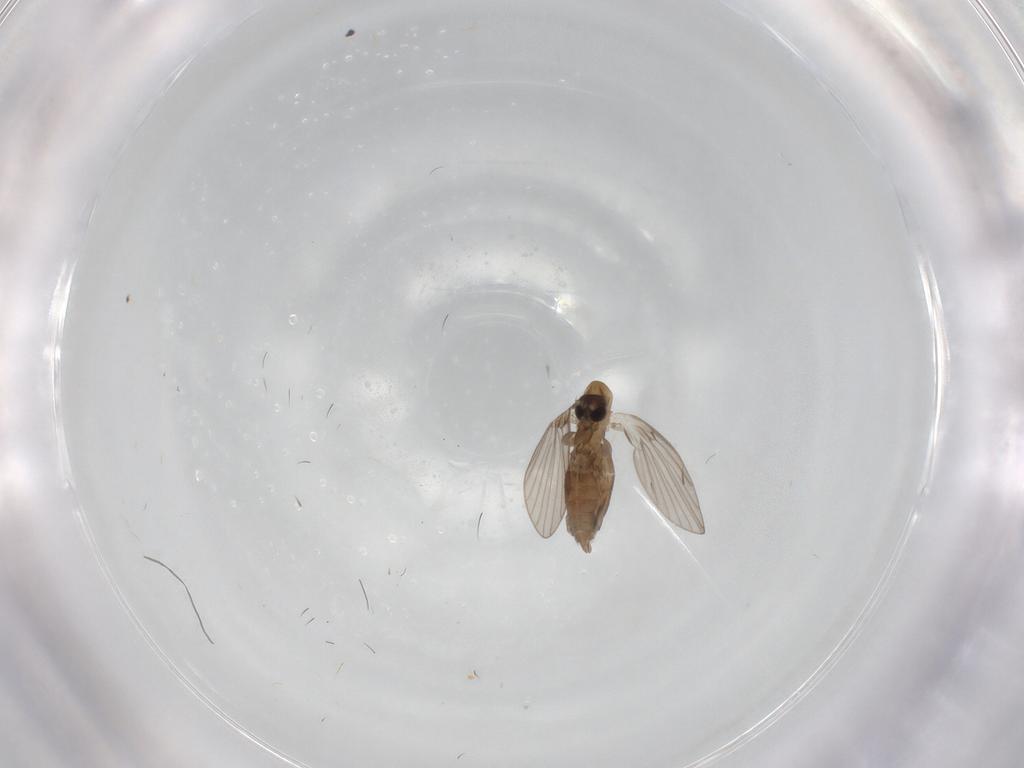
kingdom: Animalia
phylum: Arthropoda
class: Insecta
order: Diptera
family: Psychodidae
